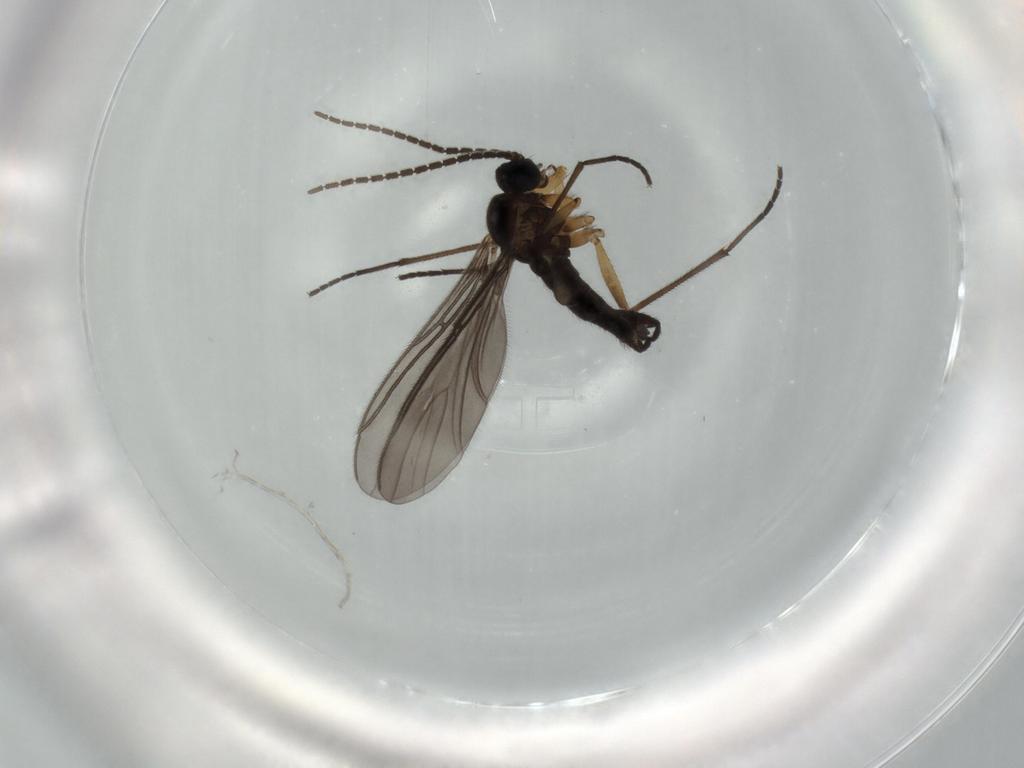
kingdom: Animalia
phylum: Arthropoda
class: Insecta
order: Diptera
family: Sciaridae
